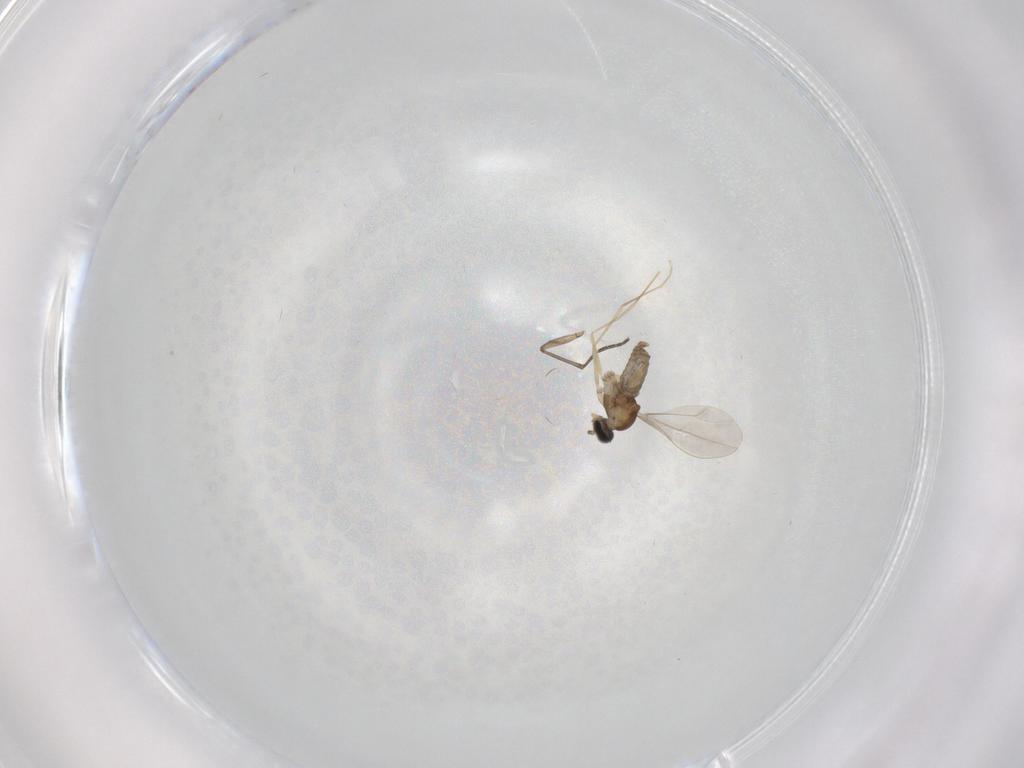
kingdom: Animalia
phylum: Arthropoda
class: Insecta
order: Diptera
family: Cecidomyiidae
